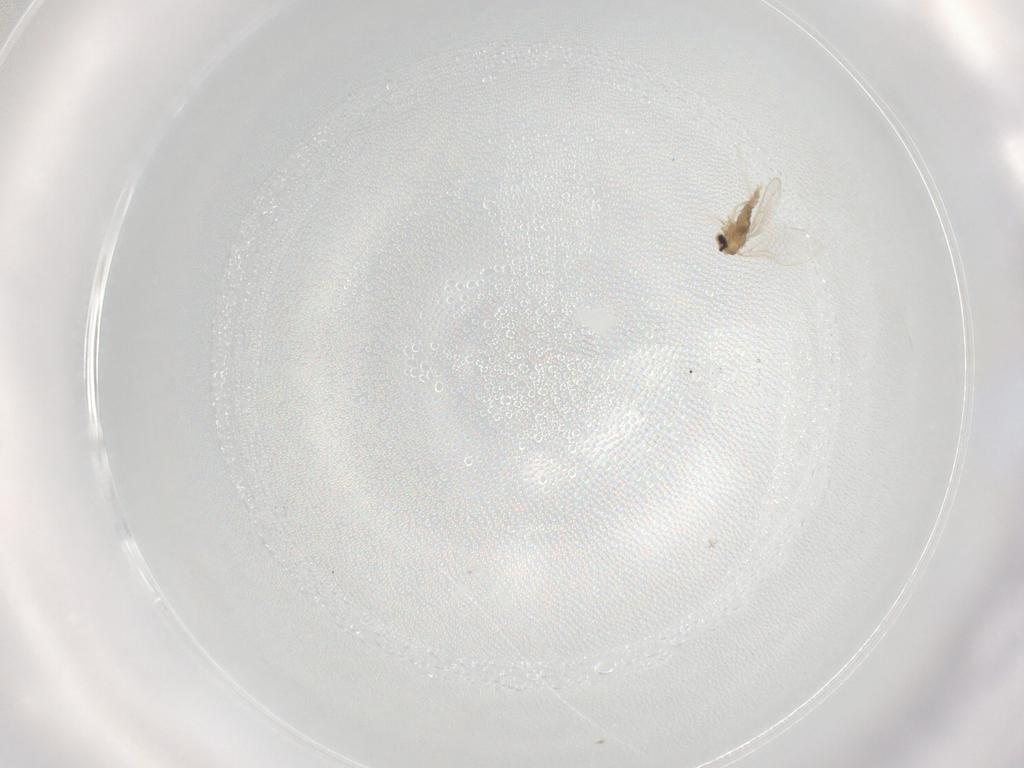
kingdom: Animalia
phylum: Arthropoda
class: Insecta
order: Diptera
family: Cecidomyiidae
